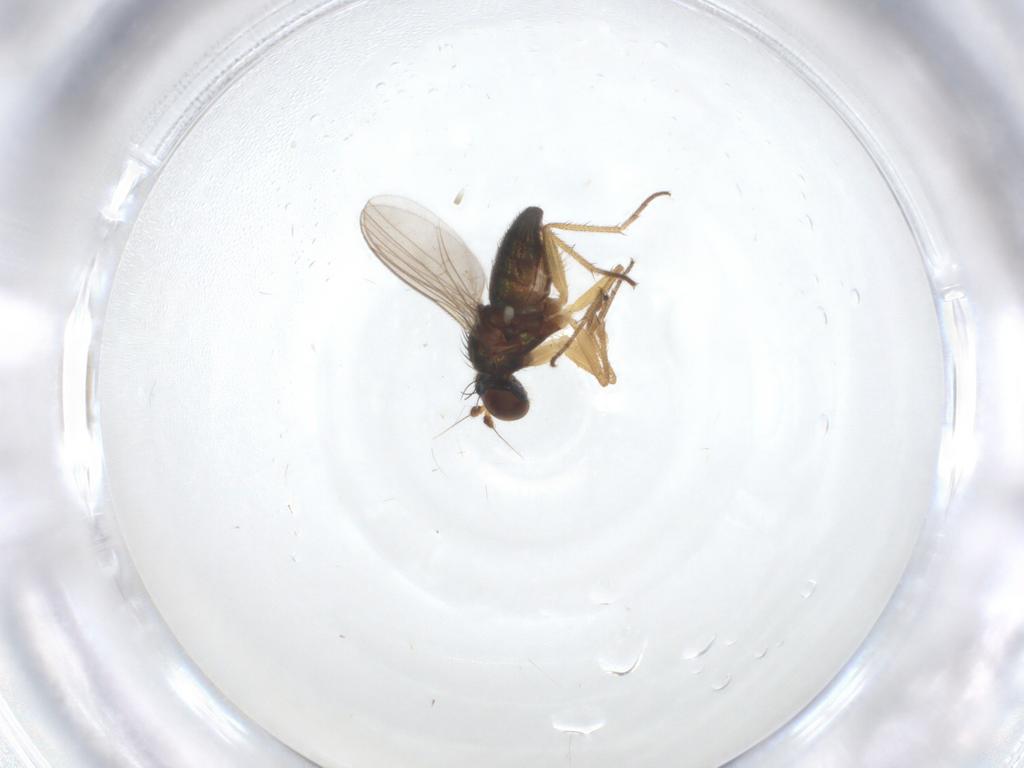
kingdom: Animalia
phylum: Arthropoda
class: Insecta
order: Diptera
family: Dolichopodidae
